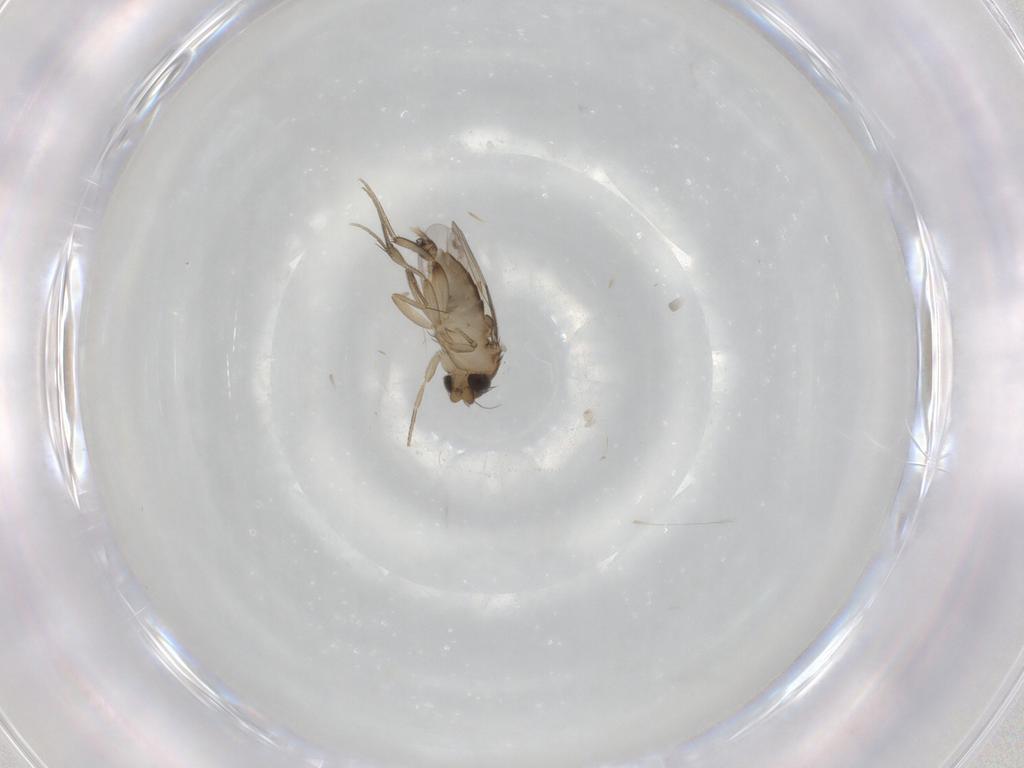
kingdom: Animalia
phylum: Arthropoda
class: Insecta
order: Diptera
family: Phoridae
